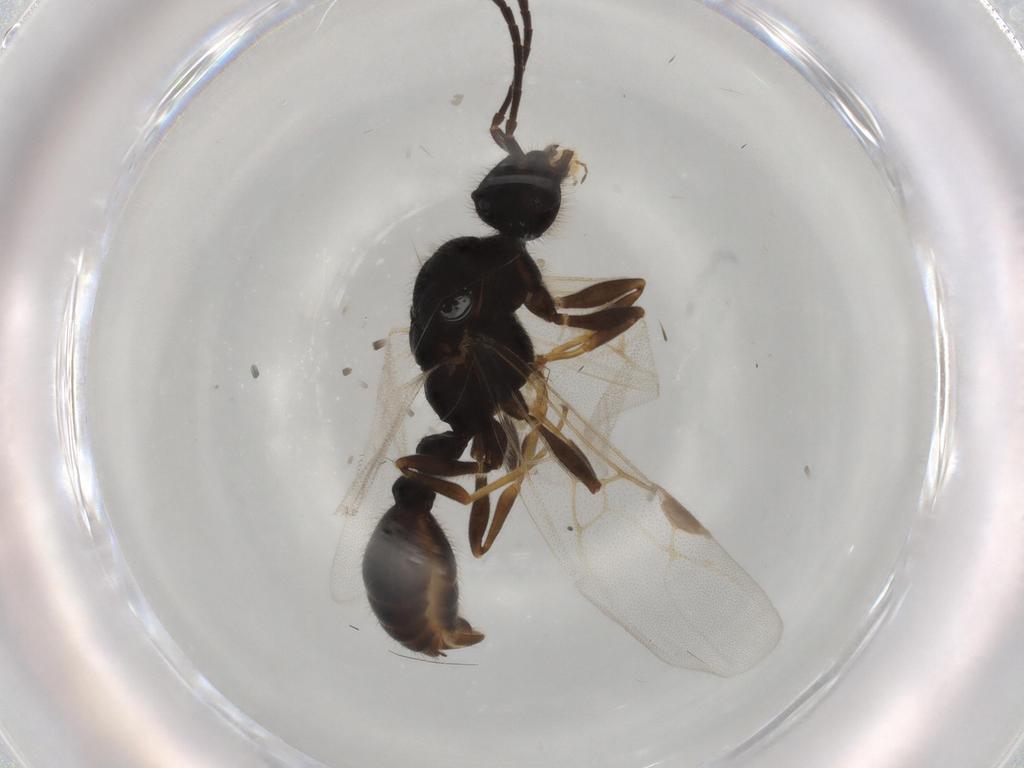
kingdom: Animalia
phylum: Arthropoda
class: Insecta
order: Hymenoptera
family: Formicidae
